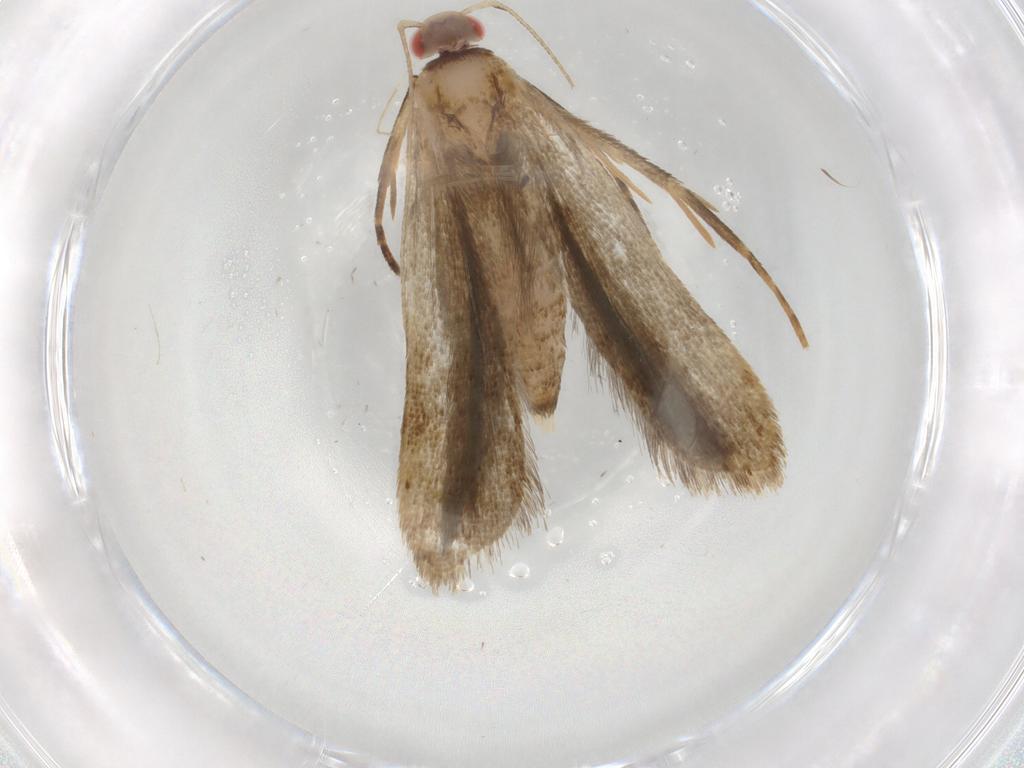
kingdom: Animalia
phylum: Arthropoda
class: Insecta
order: Lepidoptera
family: Gelechiidae
